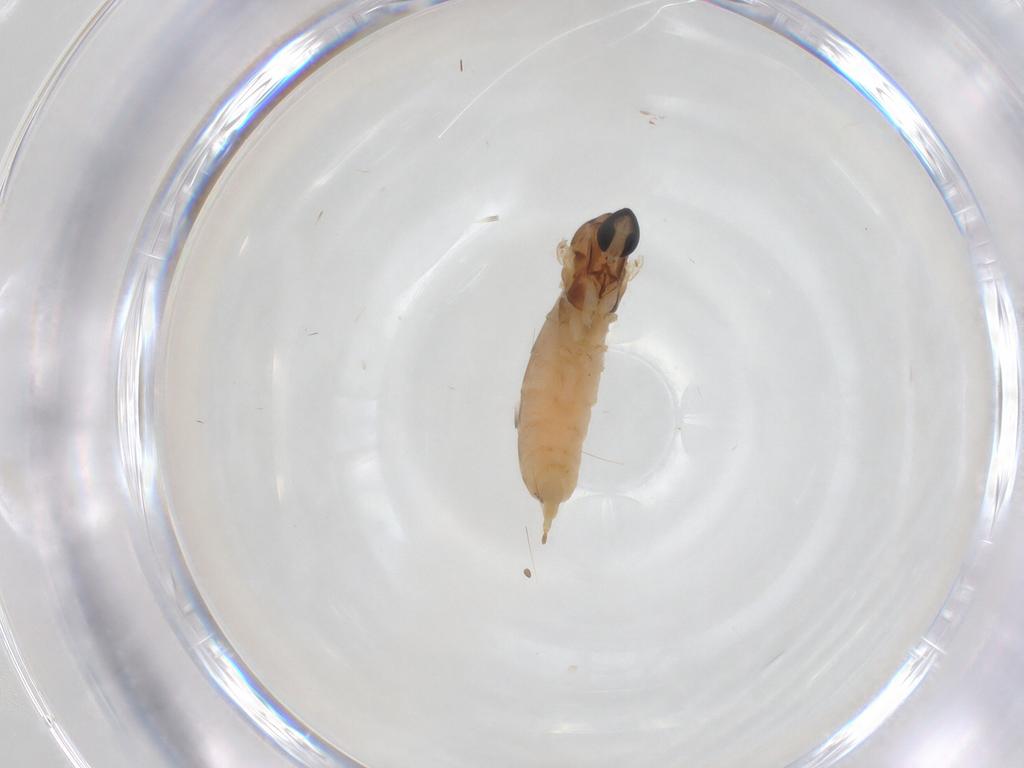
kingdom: Animalia
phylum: Arthropoda
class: Insecta
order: Diptera
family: Cecidomyiidae
